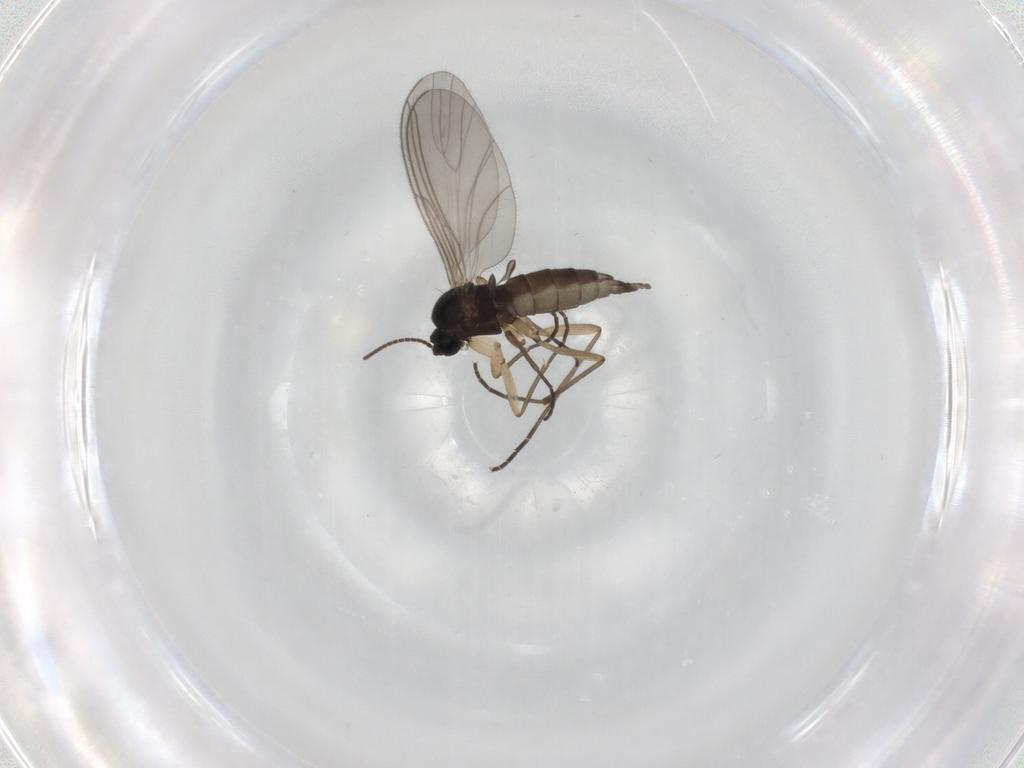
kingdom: Animalia
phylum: Arthropoda
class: Insecta
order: Diptera
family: Sciaridae
